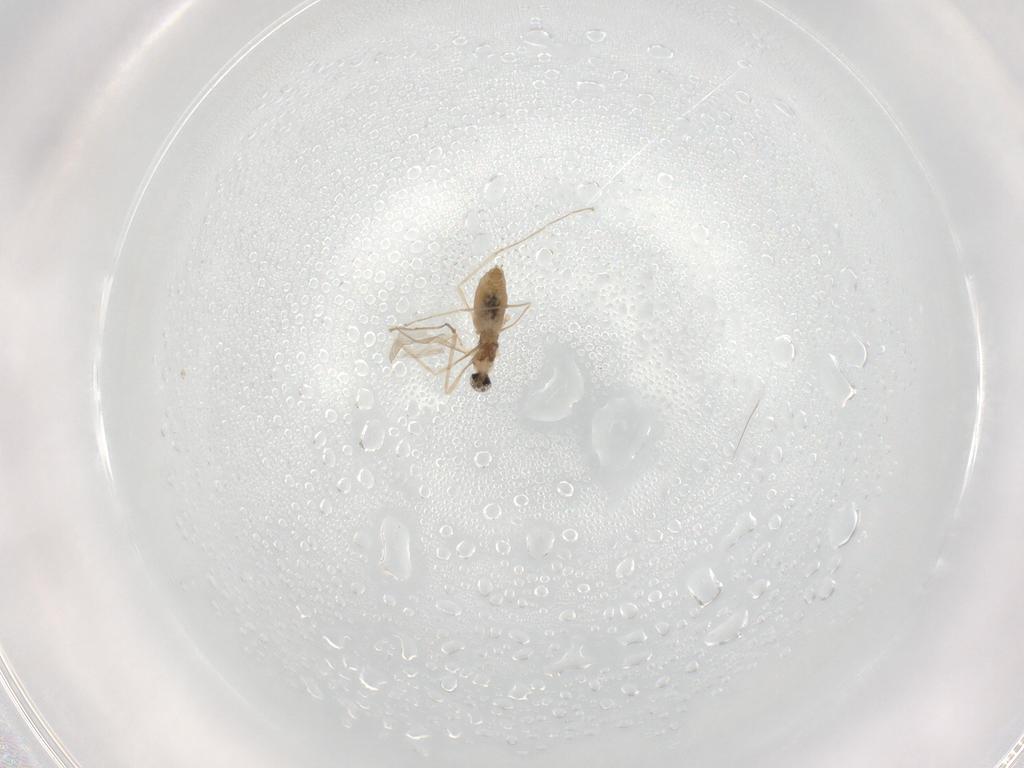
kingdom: Animalia
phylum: Arthropoda
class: Insecta
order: Diptera
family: Cecidomyiidae
